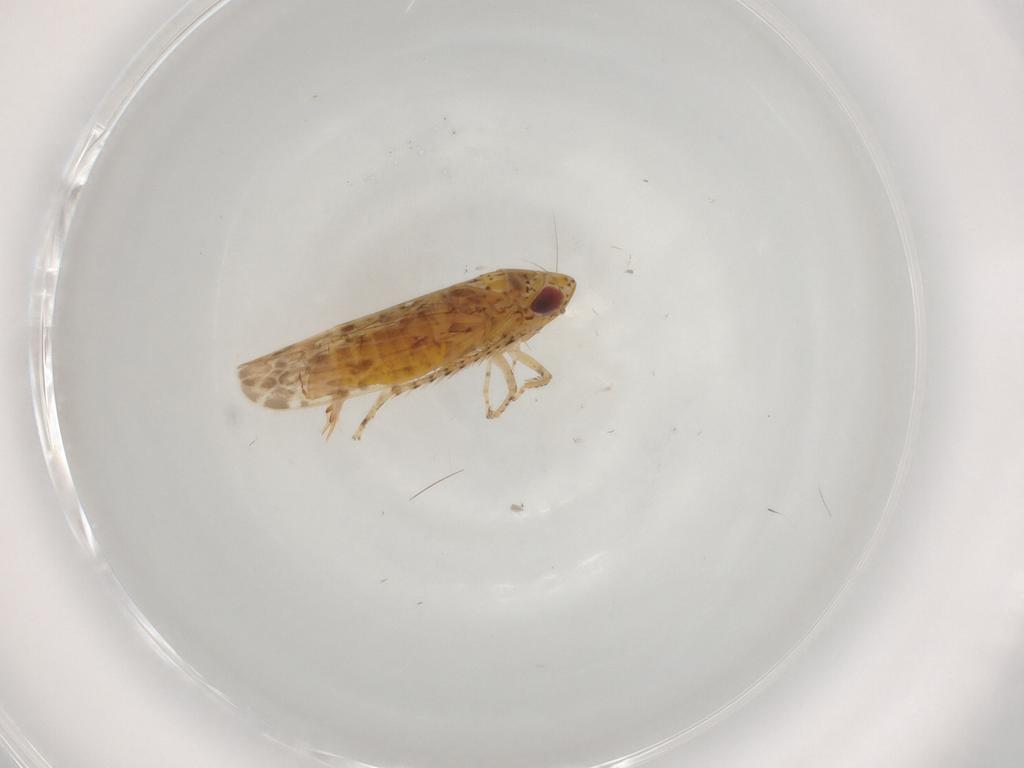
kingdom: Animalia
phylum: Arthropoda
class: Insecta
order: Hemiptera
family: Cicadellidae
